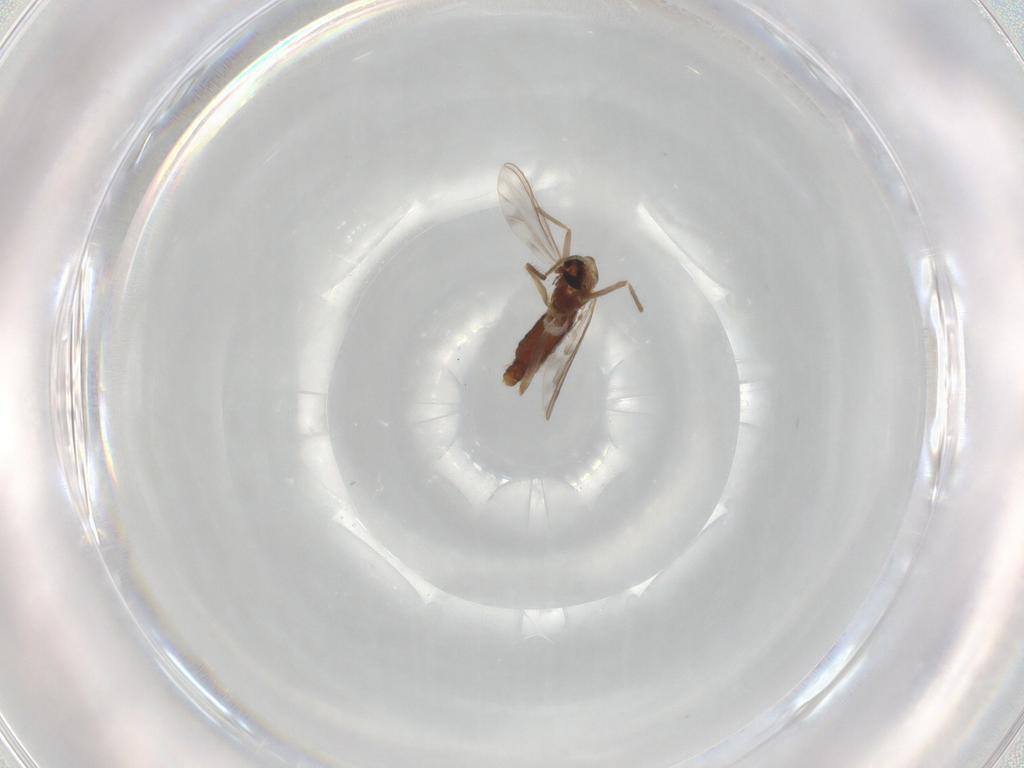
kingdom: Animalia
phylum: Arthropoda
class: Insecta
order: Diptera
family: Chironomidae
